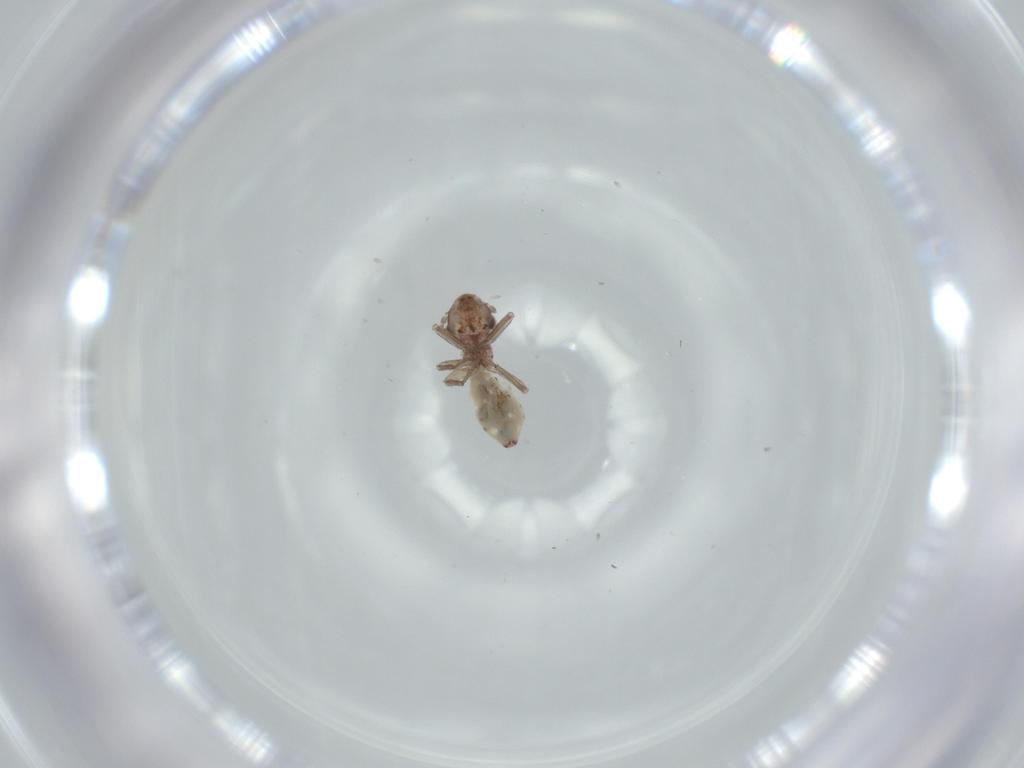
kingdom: Animalia
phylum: Arthropoda
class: Insecta
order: Psocodea
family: Lepidopsocidae
